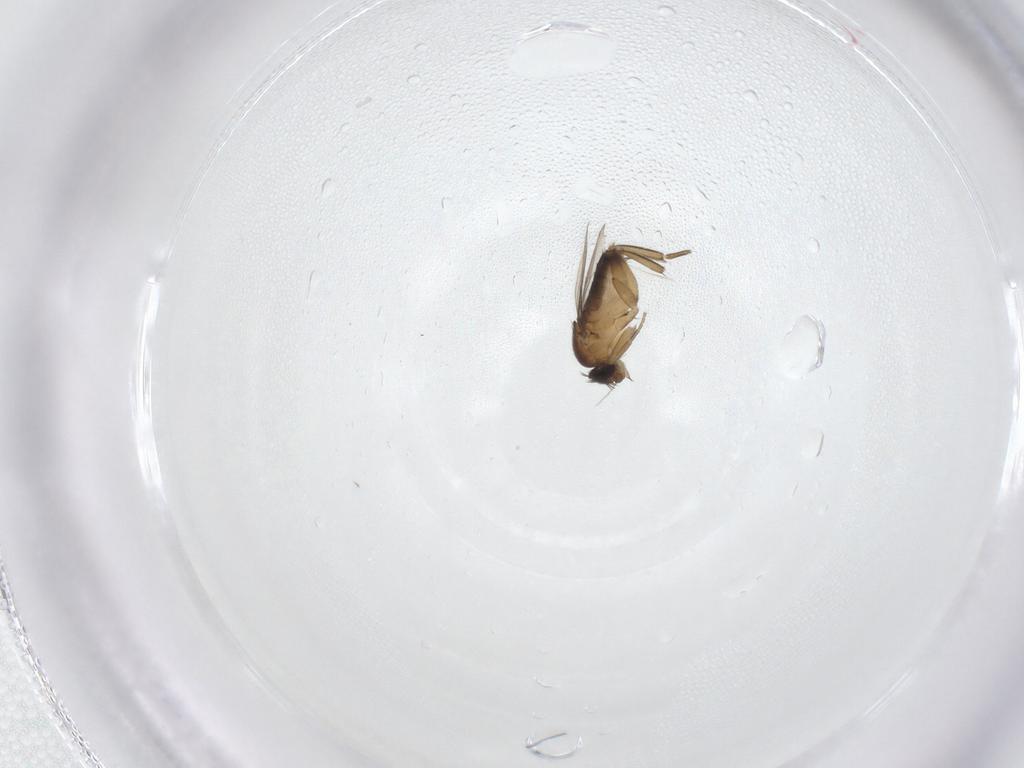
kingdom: Animalia
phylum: Arthropoda
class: Insecta
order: Diptera
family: Phoridae
